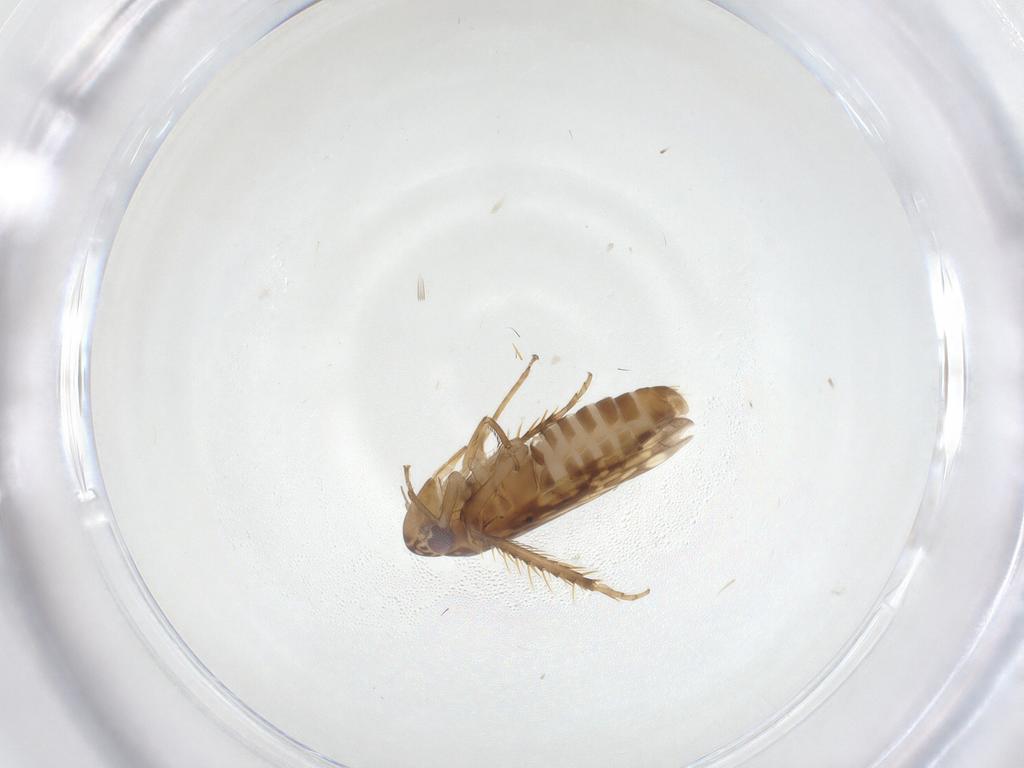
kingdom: Animalia
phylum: Arthropoda
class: Insecta
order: Hemiptera
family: Cicadellidae
